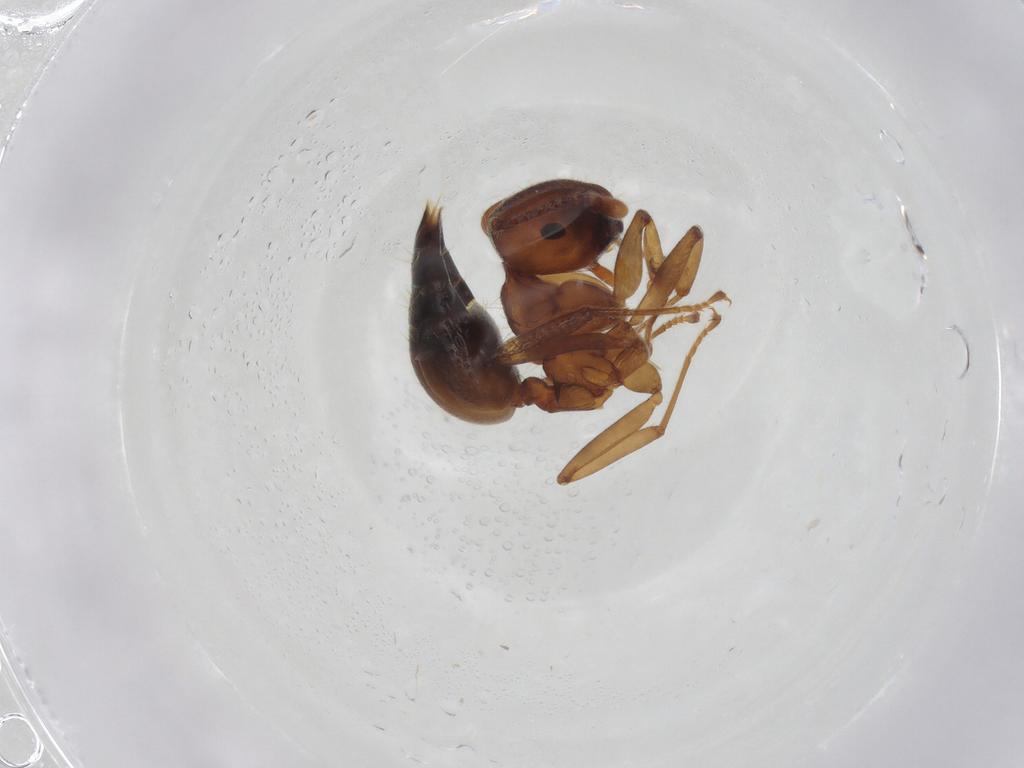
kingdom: Animalia
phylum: Arthropoda
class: Insecta
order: Hymenoptera
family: Formicidae
